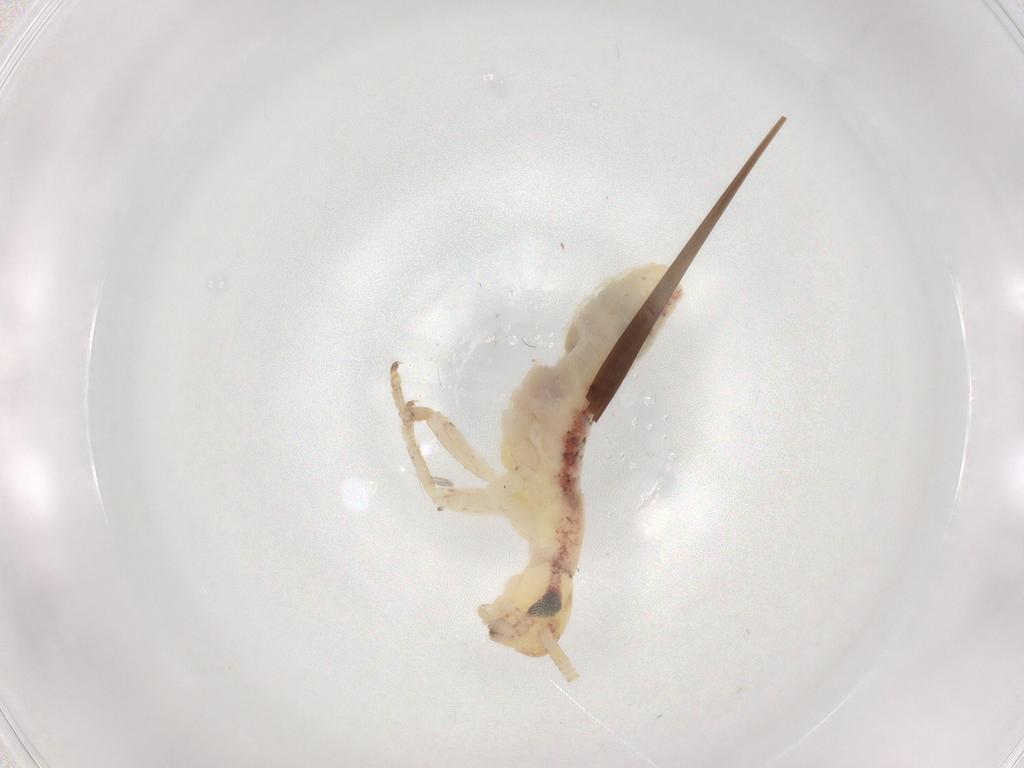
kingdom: Animalia
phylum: Arthropoda
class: Insecta
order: Orthoptera
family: Gryllidae
